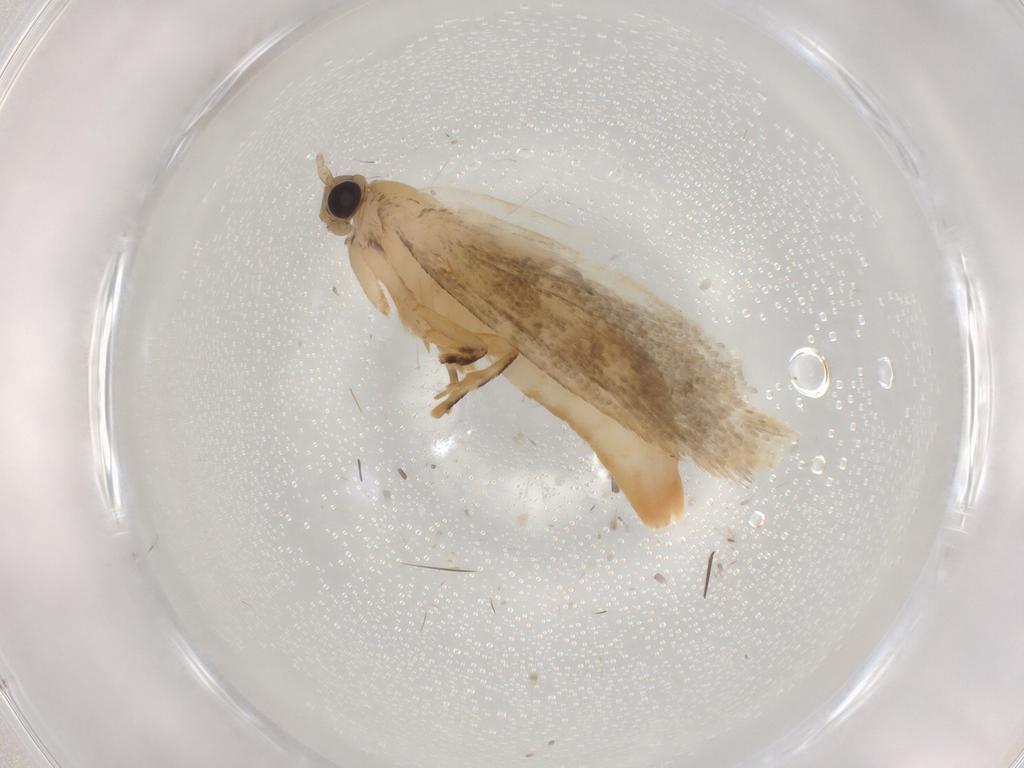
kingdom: Animalia
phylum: Arthropoda
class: Insecta
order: Lepidoptera
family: Tineidae
